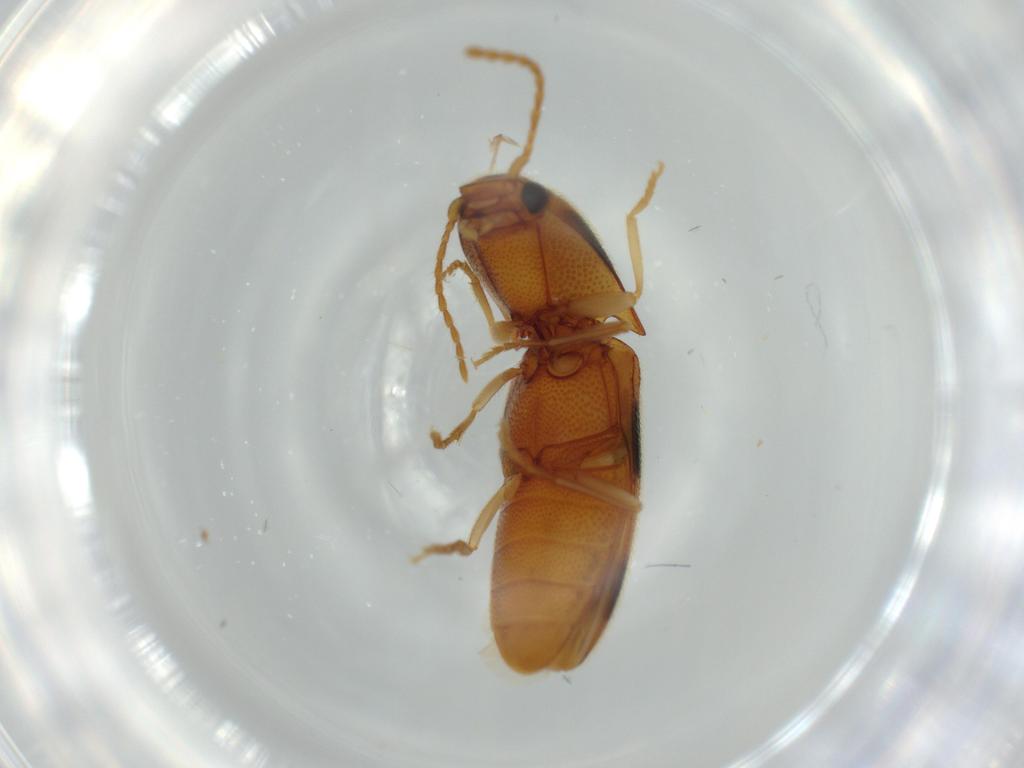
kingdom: Animalia
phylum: Arthropoda
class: Insecta
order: Coleoptera
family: Elateridae
